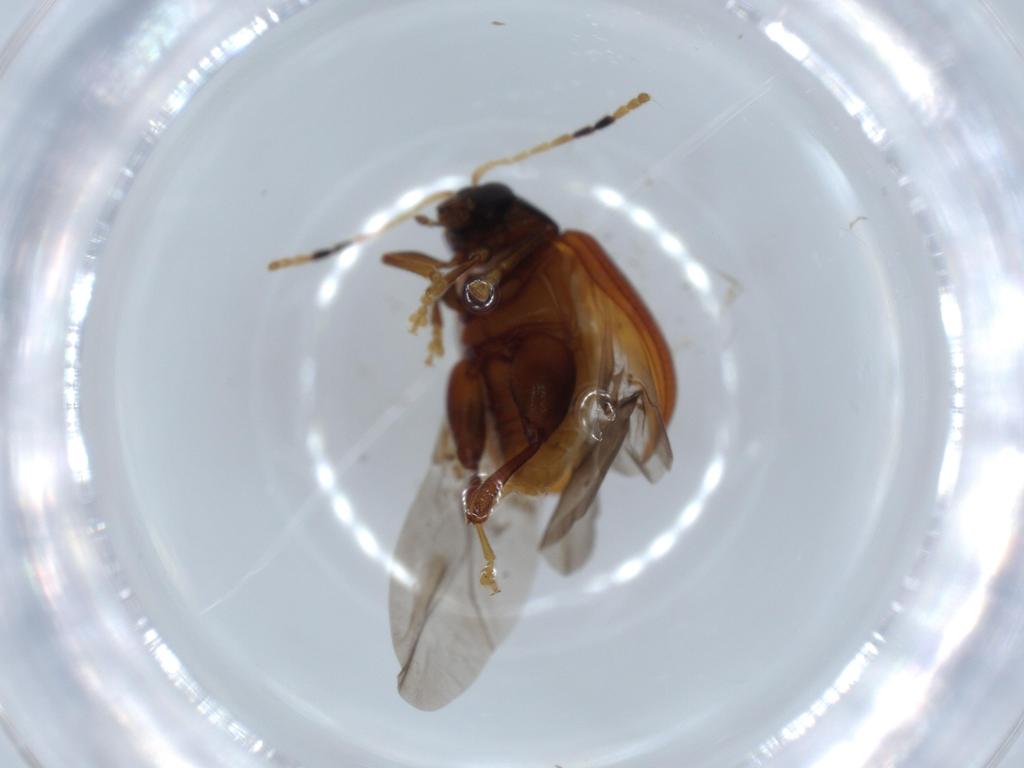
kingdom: Animalia
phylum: Arthropoda
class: Insecta
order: Coleoptera
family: Chrysomelidae
